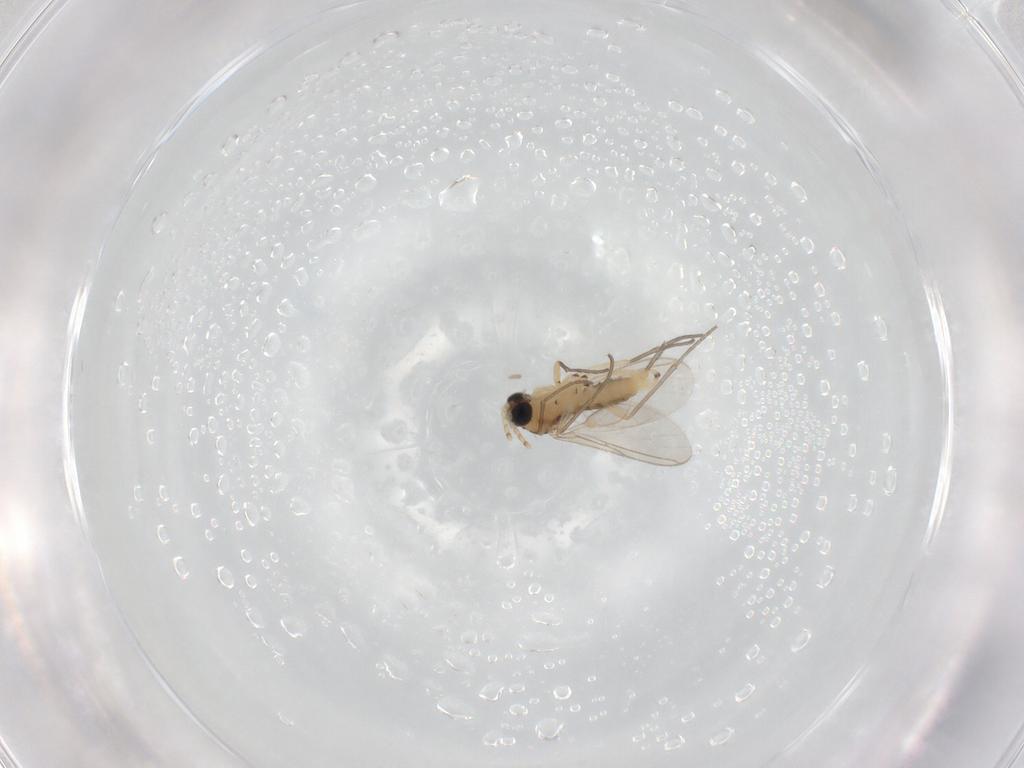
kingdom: Animalia
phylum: Arthropoda
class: Insecta
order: Diptera
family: Sciaridae
